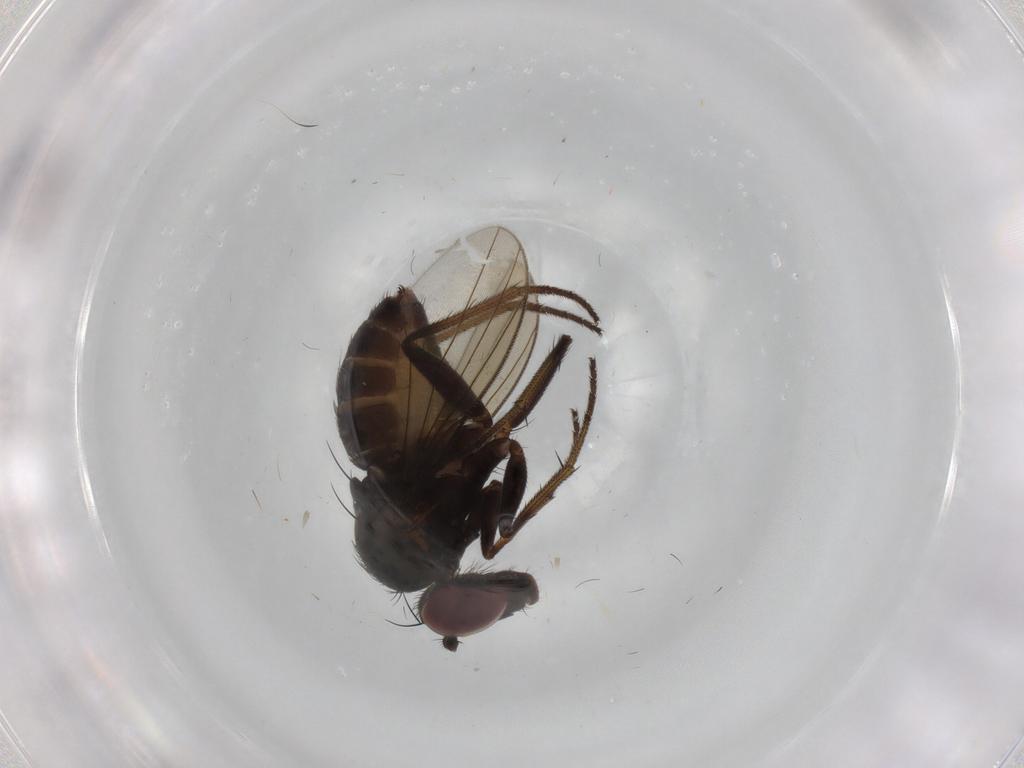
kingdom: Animalia
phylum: Arthropoda
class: Insecta
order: Diptera
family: Dolichopodidae
